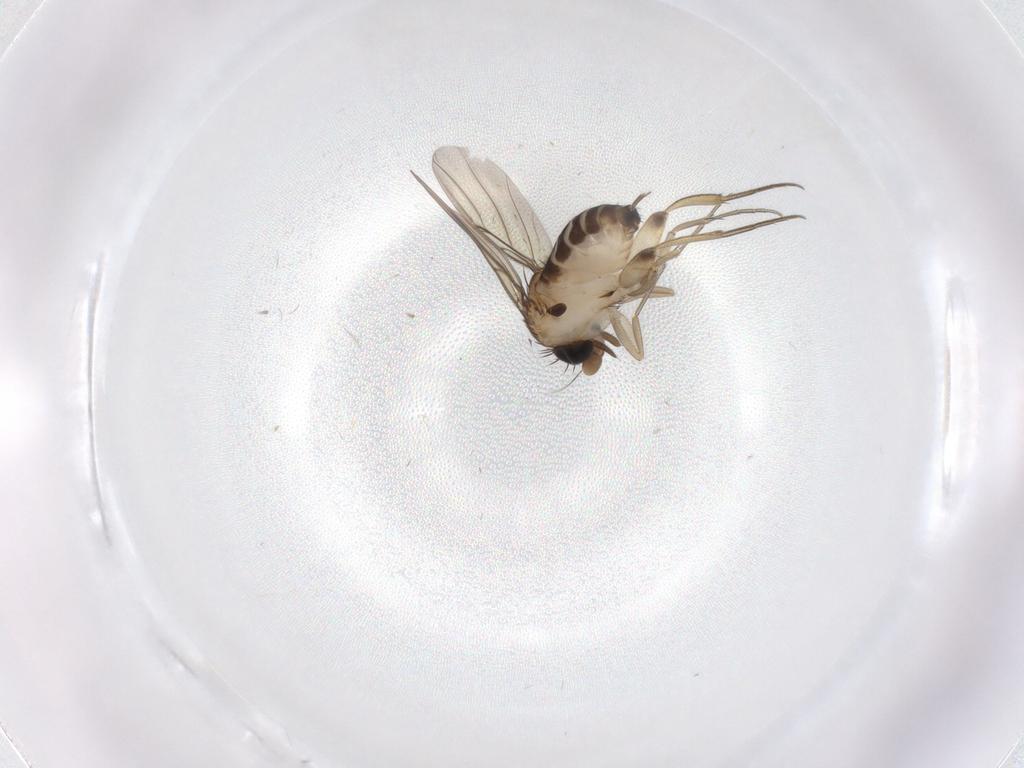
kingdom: Animalia
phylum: Arthropoda
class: Insecta
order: Diptera
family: Phoridae
